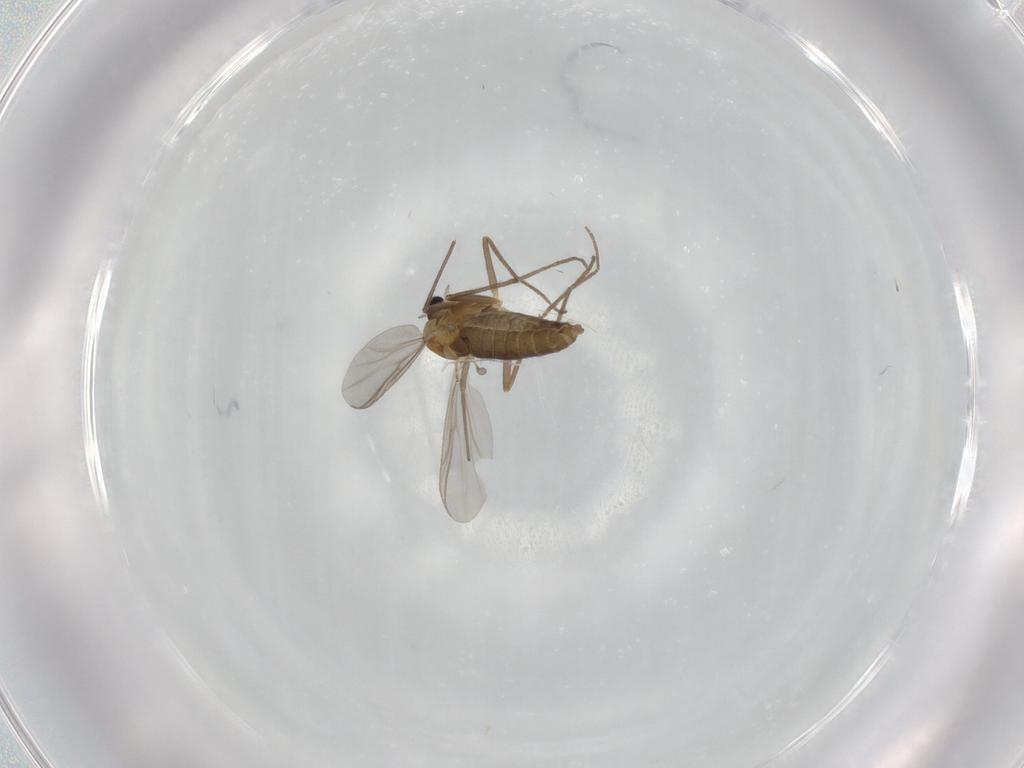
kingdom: Animalia
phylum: Arthropoda
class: Insecta
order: Diptera
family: Chironomidae
